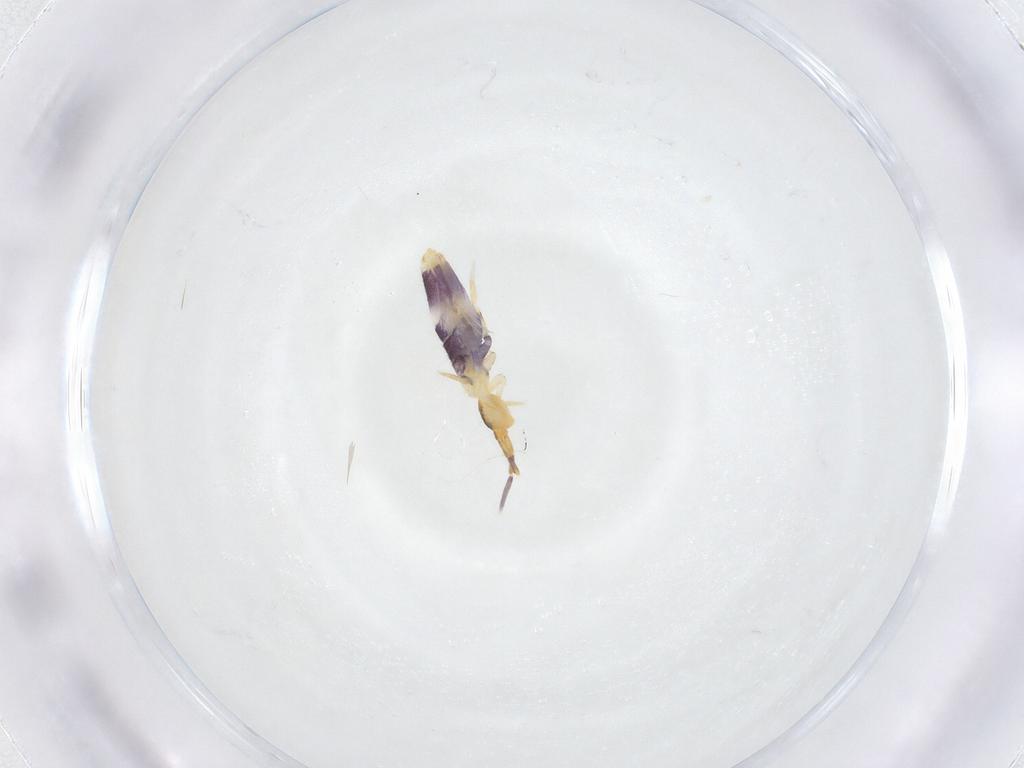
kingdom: Animalia
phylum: Arthropoda
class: Collembola
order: Entomobryomorpha
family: Entomobryidae
